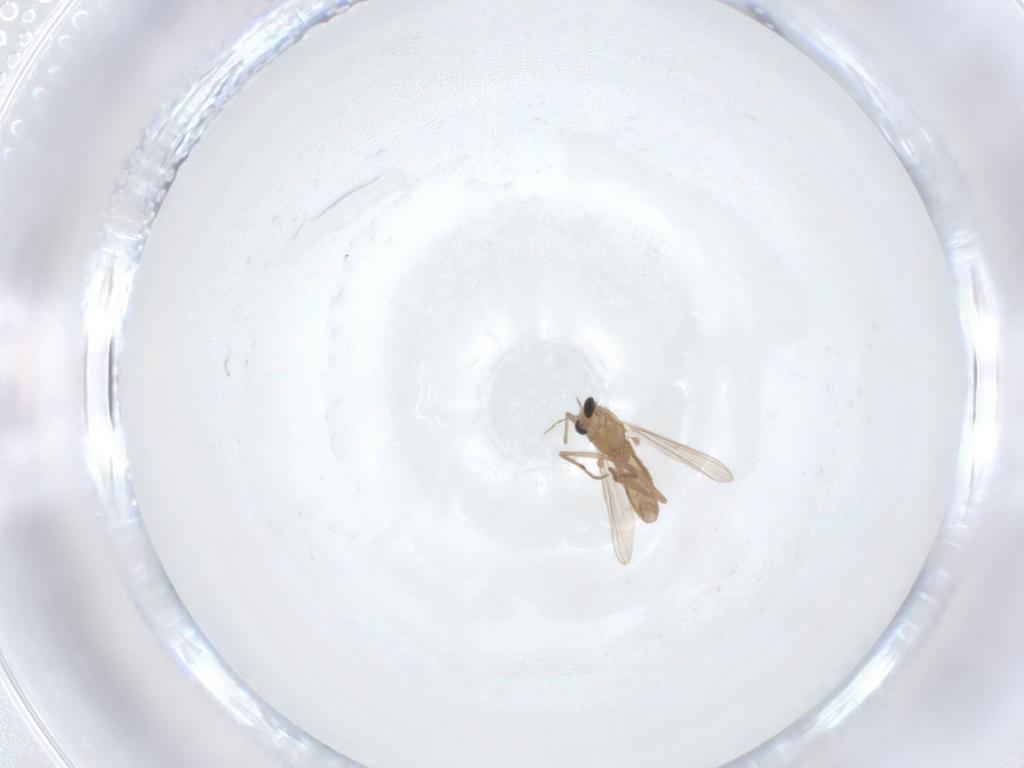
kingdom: Animalia
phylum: Arthropoda
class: Insecta
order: Diptera
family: Chironomidae
